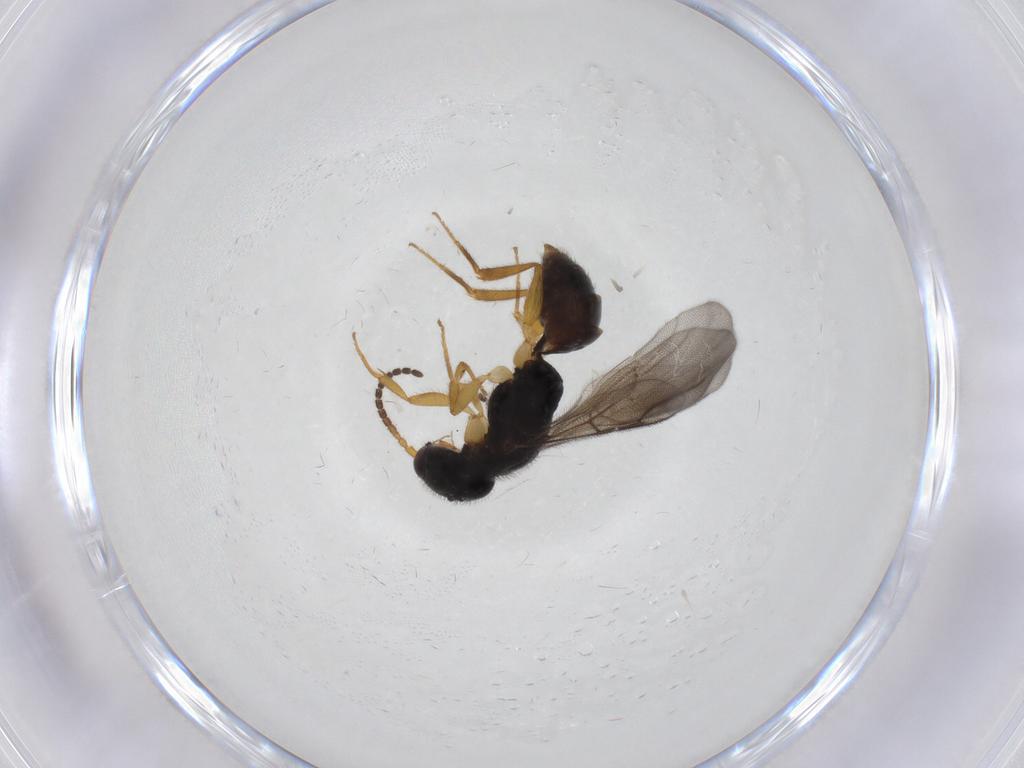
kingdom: Animalia
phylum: Arthropoda
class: Insecta
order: Hymenoptera
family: Bethylidae
